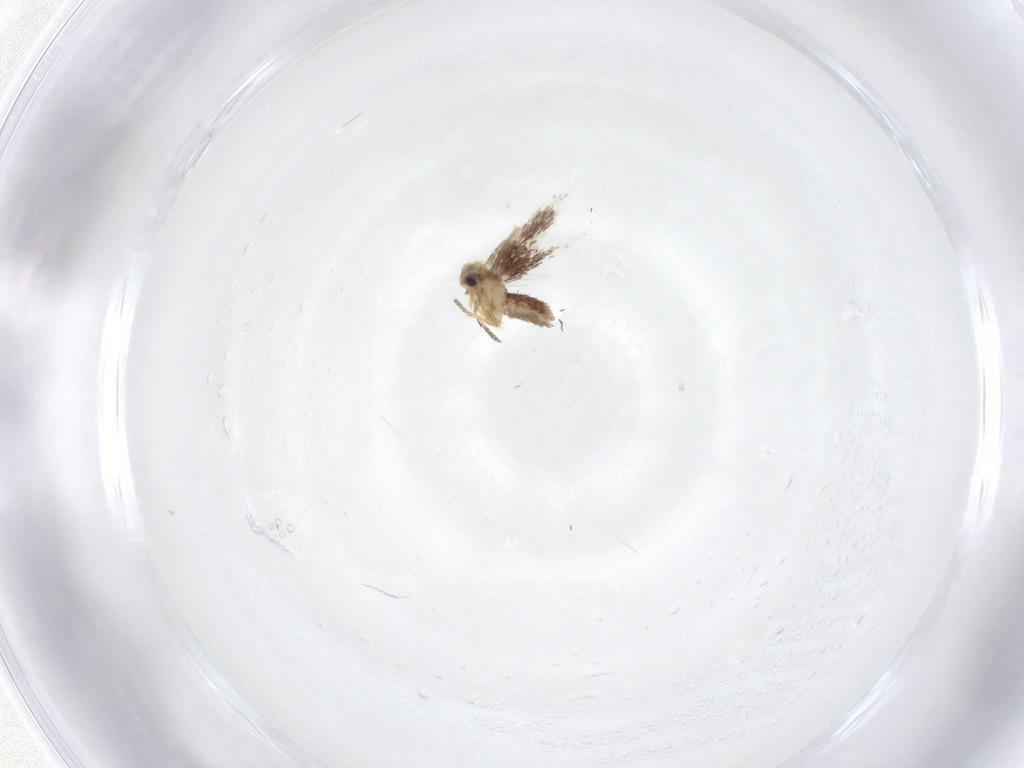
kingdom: Animalia
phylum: Arthropoda
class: Insecta
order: Lepidoptera
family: Nepticulidae
